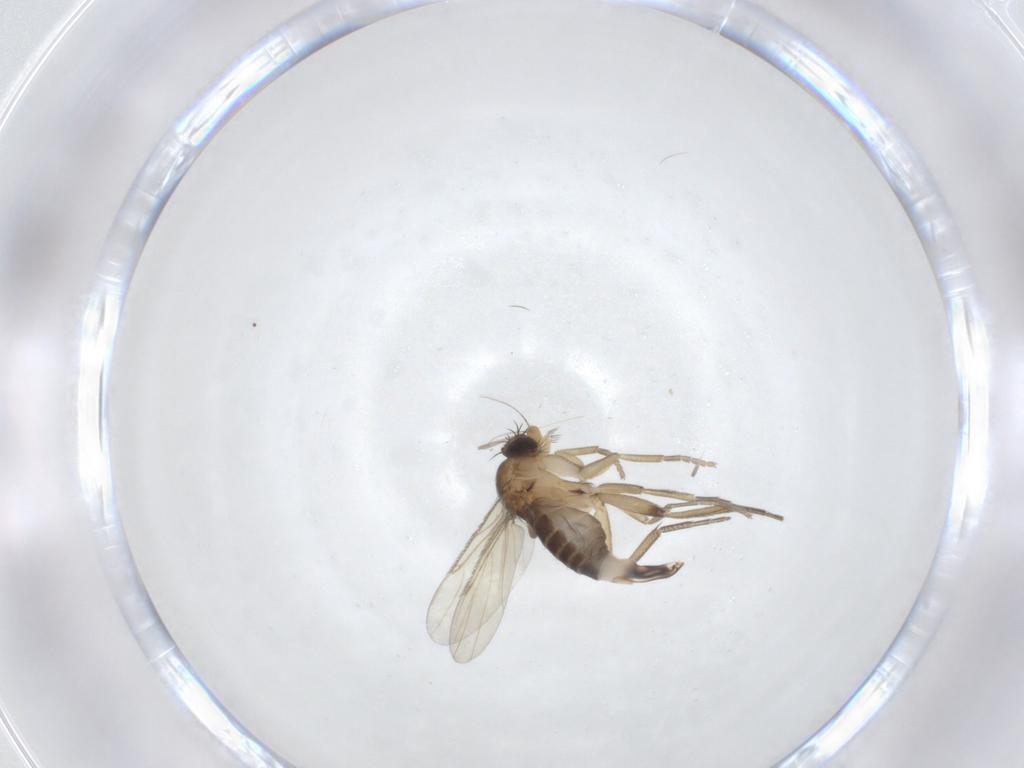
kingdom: Animalia
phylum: Arthropoda
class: Insecta
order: Diptera
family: Phoridae
